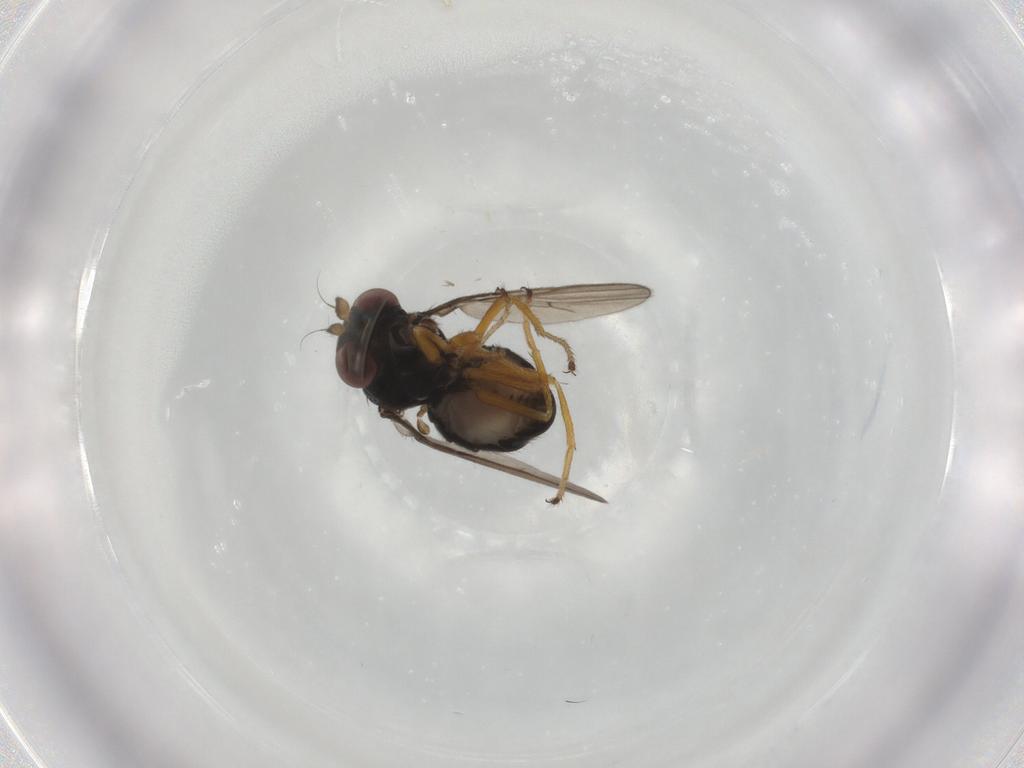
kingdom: Animalia
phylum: Arthropoda
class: Insecta
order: Diptera
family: Ephydridae
